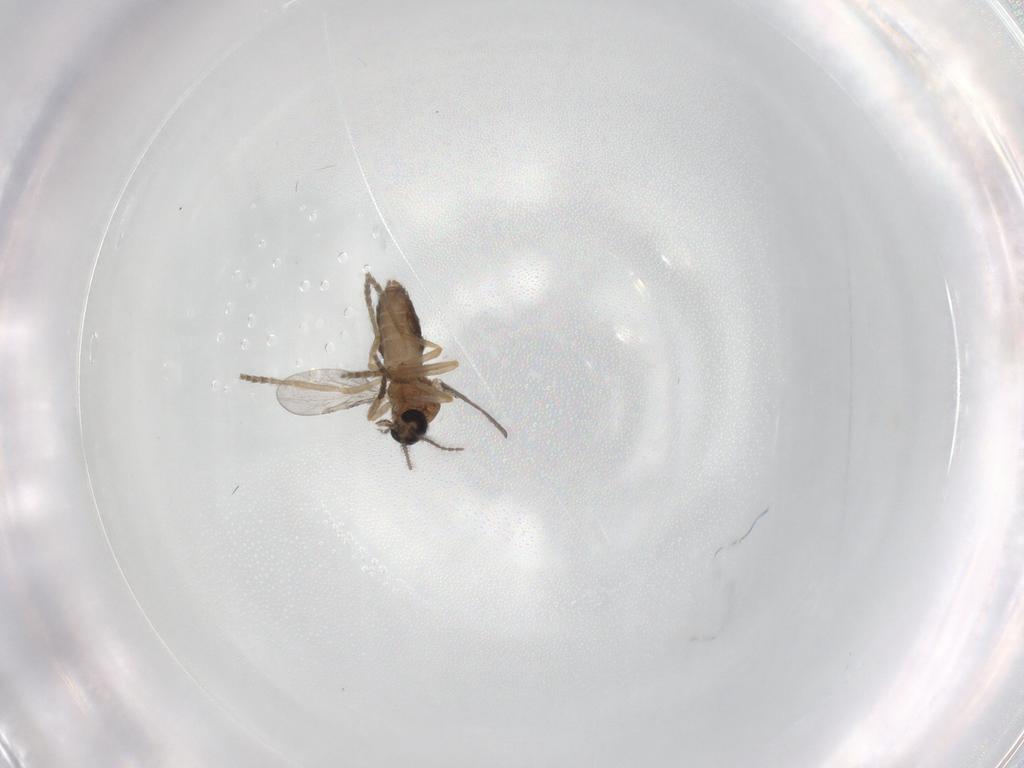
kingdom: Animalia
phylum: Arthropoda
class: Insecta
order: Diptera
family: Ceratopogonidae
